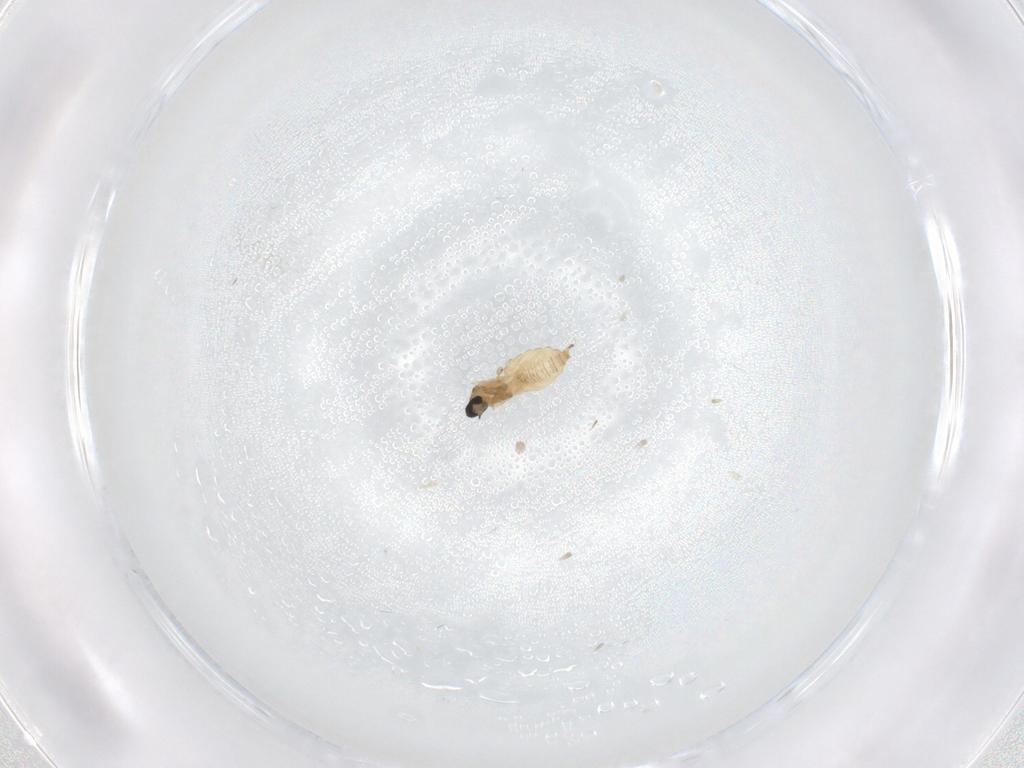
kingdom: Animalia
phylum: Arthropoda
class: Insecta
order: Diptera
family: Cecidomyiidae
